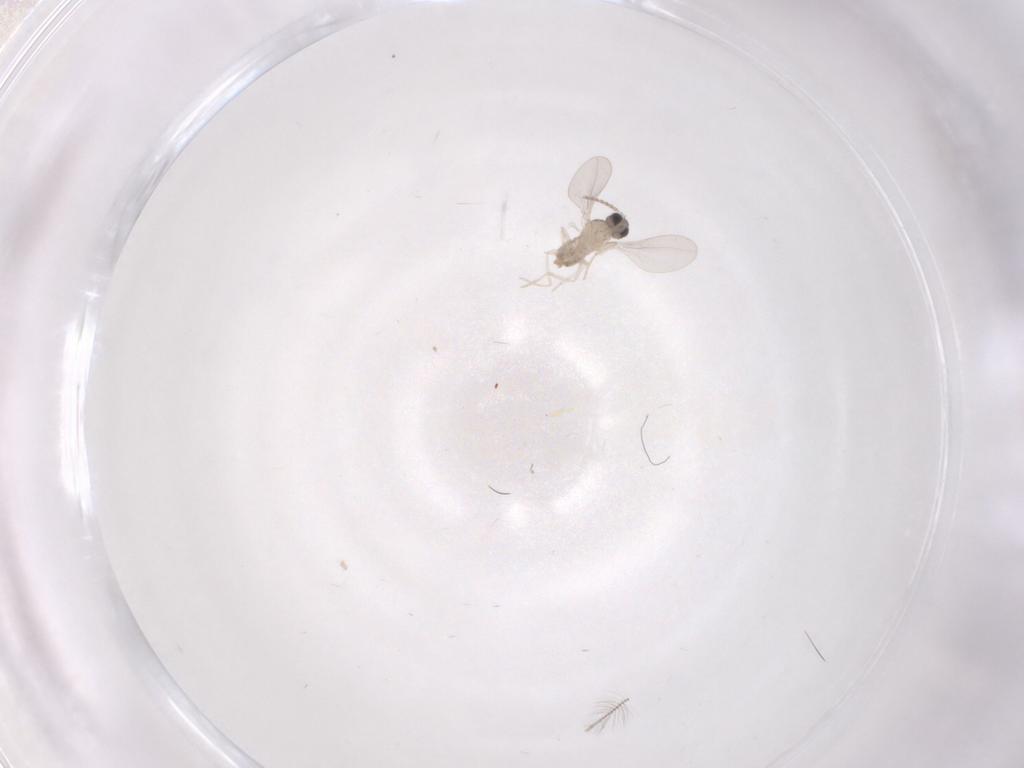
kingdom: Animalia
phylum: Arthropoda
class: Insecta
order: Diptera
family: Cecidomyiidae
